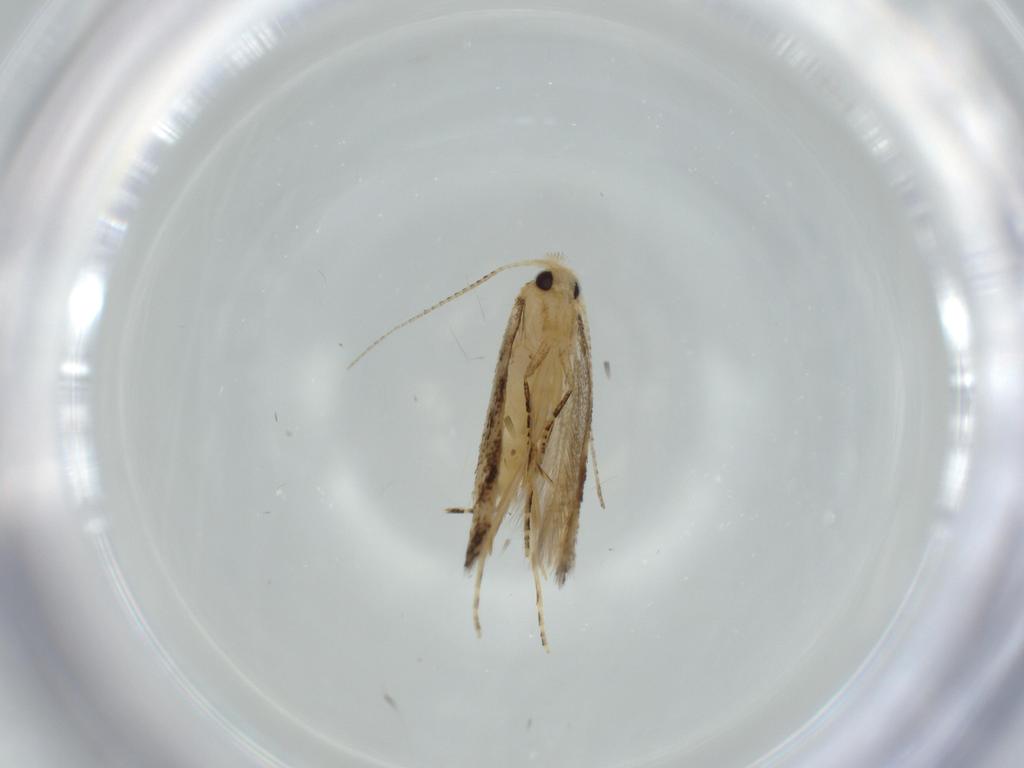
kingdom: Animalia
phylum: Arthropoda
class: Insecta
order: Lepidoptera
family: Bucculatricidae
